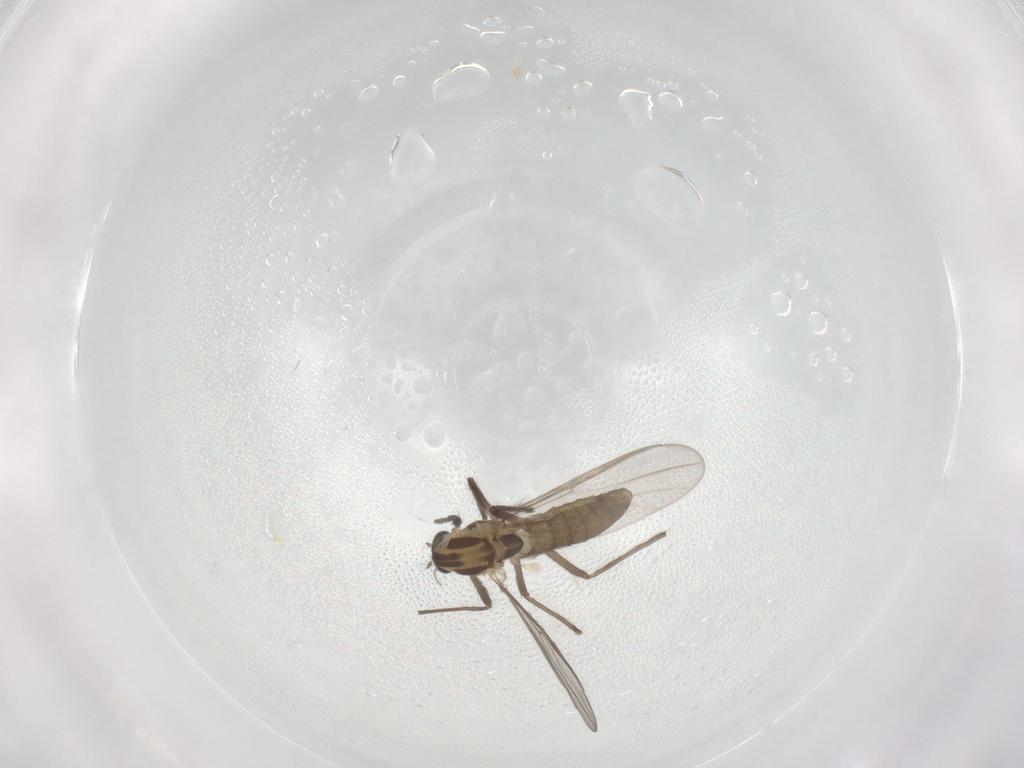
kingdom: Animalia
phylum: Arthropoda
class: Insecta
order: Diptera
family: Chironomidae
